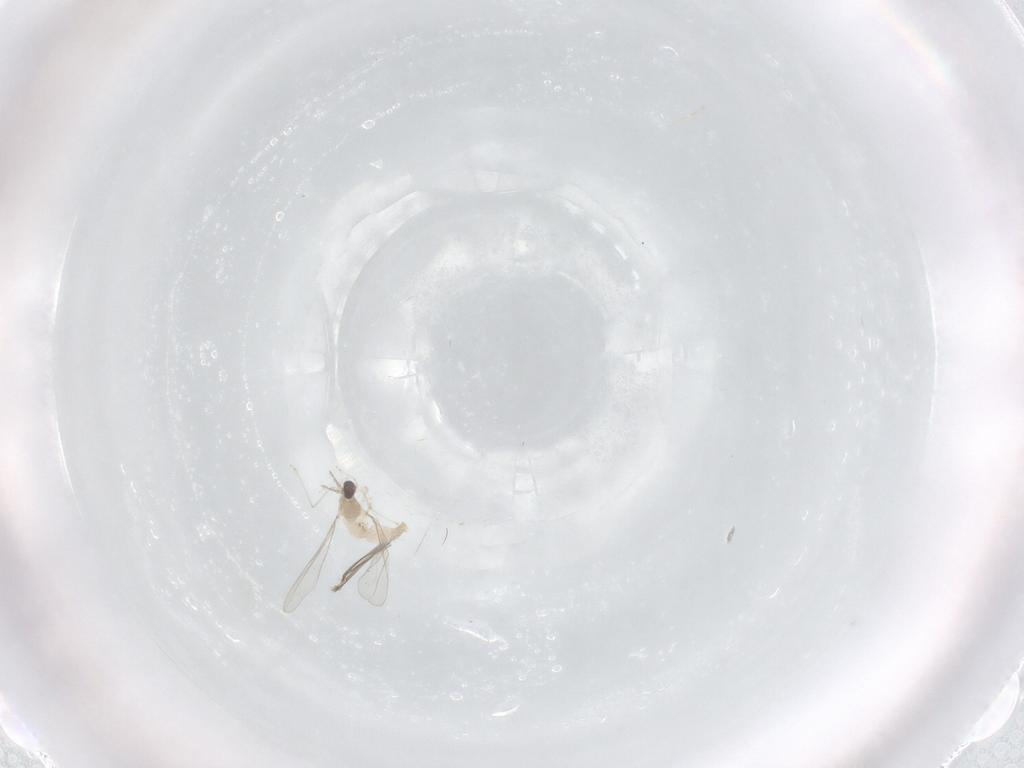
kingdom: Animalia
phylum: Arthropoda
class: Insecta
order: Diptera
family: Cecidomyiidae
